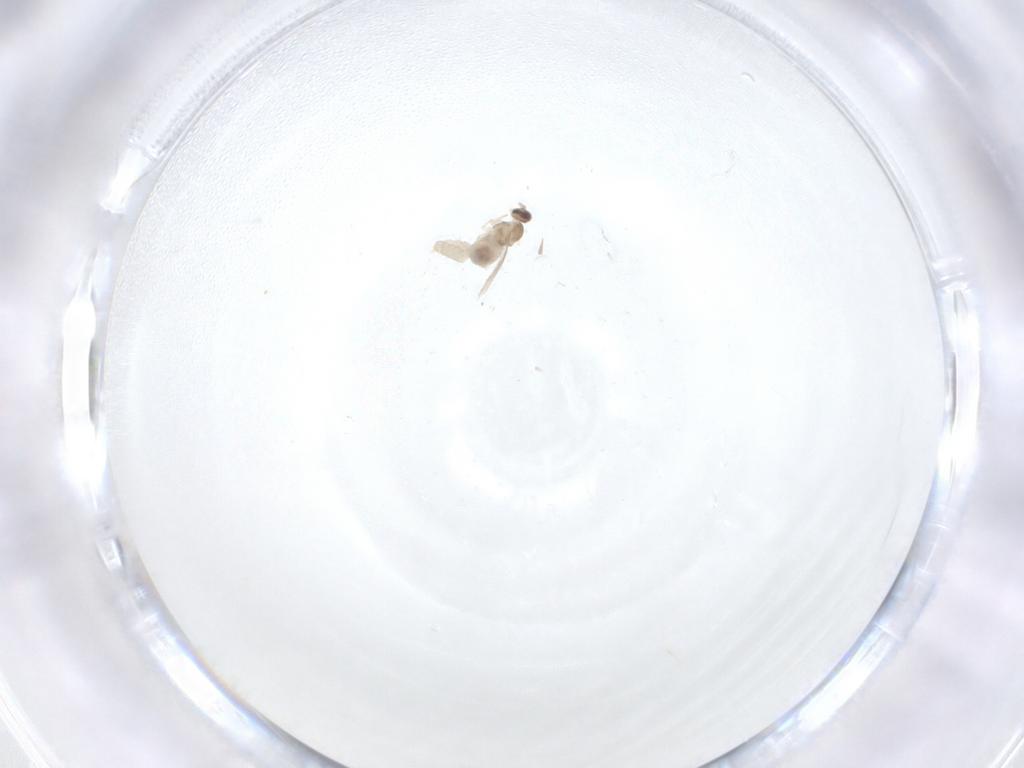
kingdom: Animalia
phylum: Arthropoda
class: Insecta
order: Diptera
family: Cecidomyiidae
